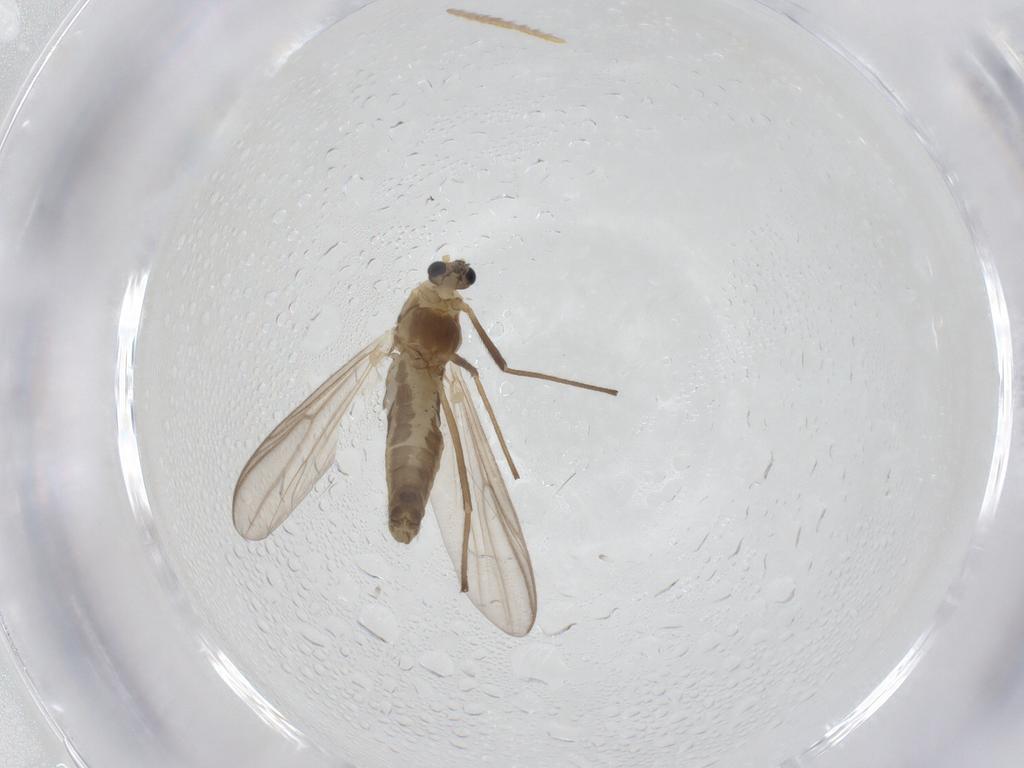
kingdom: Animalia
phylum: Arthropoda
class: Insecta
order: Diptera
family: Chironomidae
